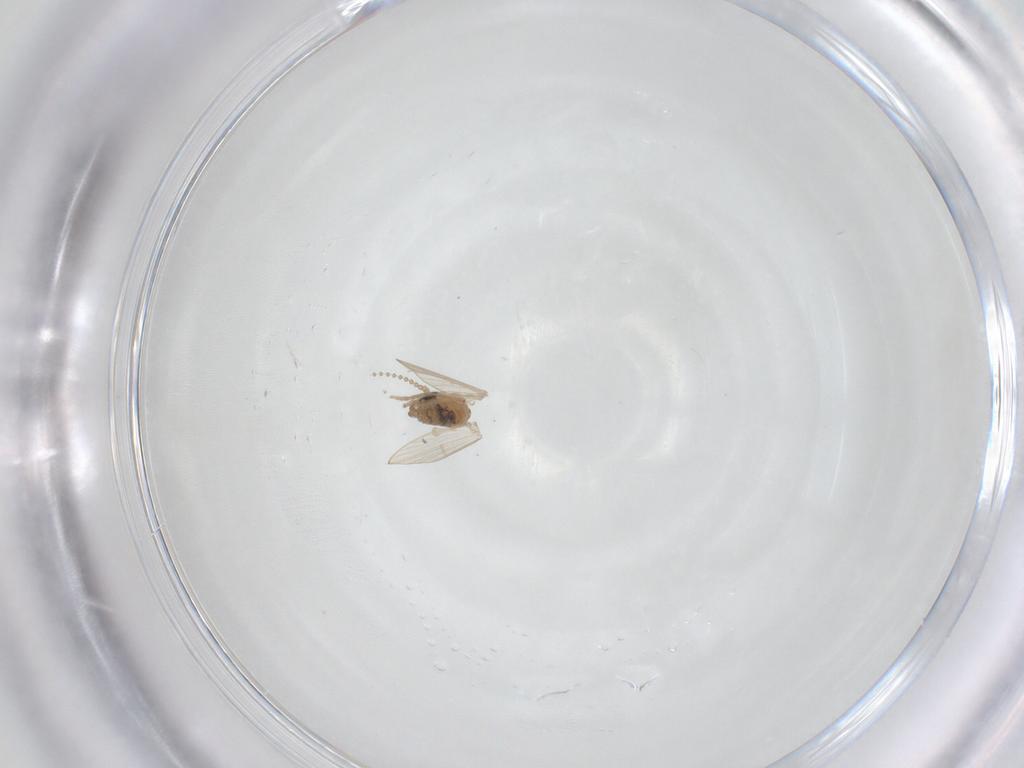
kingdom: Animalia
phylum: Arthropoda
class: Insecta
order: Diptera
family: Psychodidae
